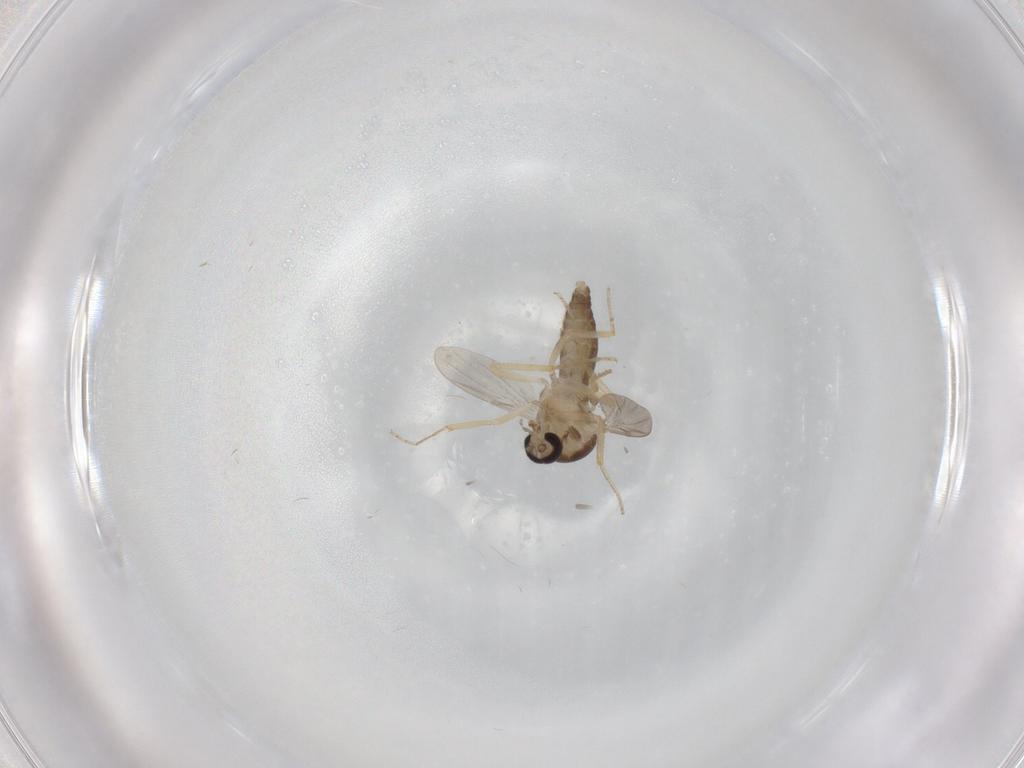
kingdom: Animalia
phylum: Arthropoda
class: Insecta
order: Diptera
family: Ceratopogonidae
